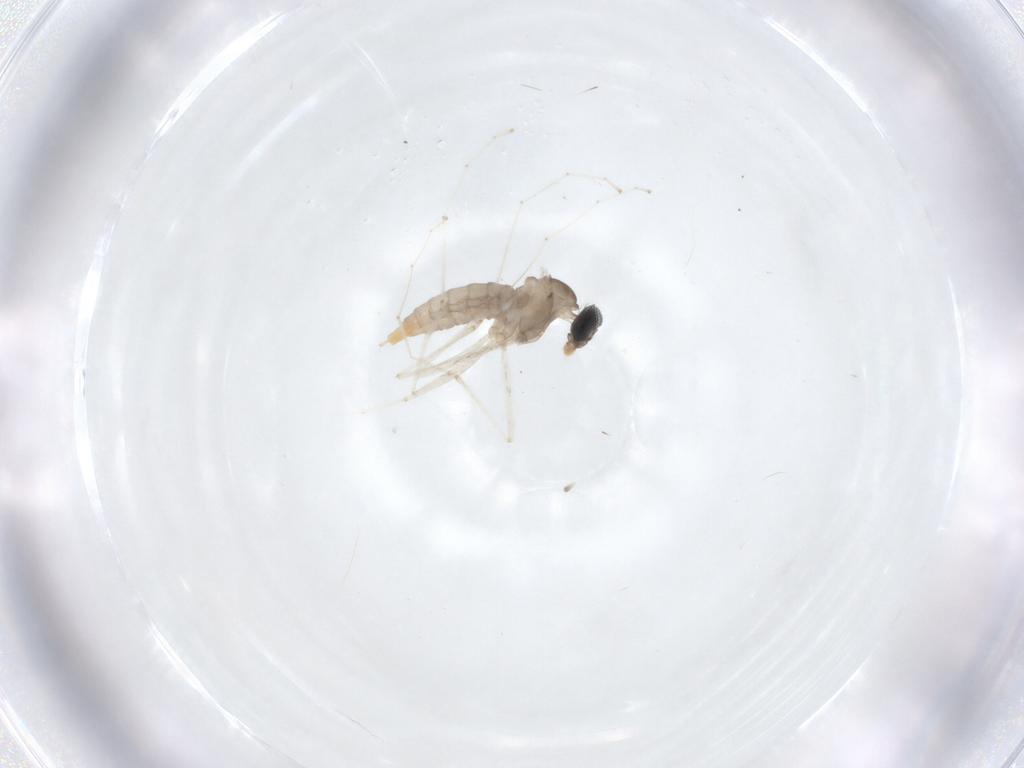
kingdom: Animalia
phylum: Arthropoda
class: Insecta
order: Diptera
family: Cecidomyiidae
